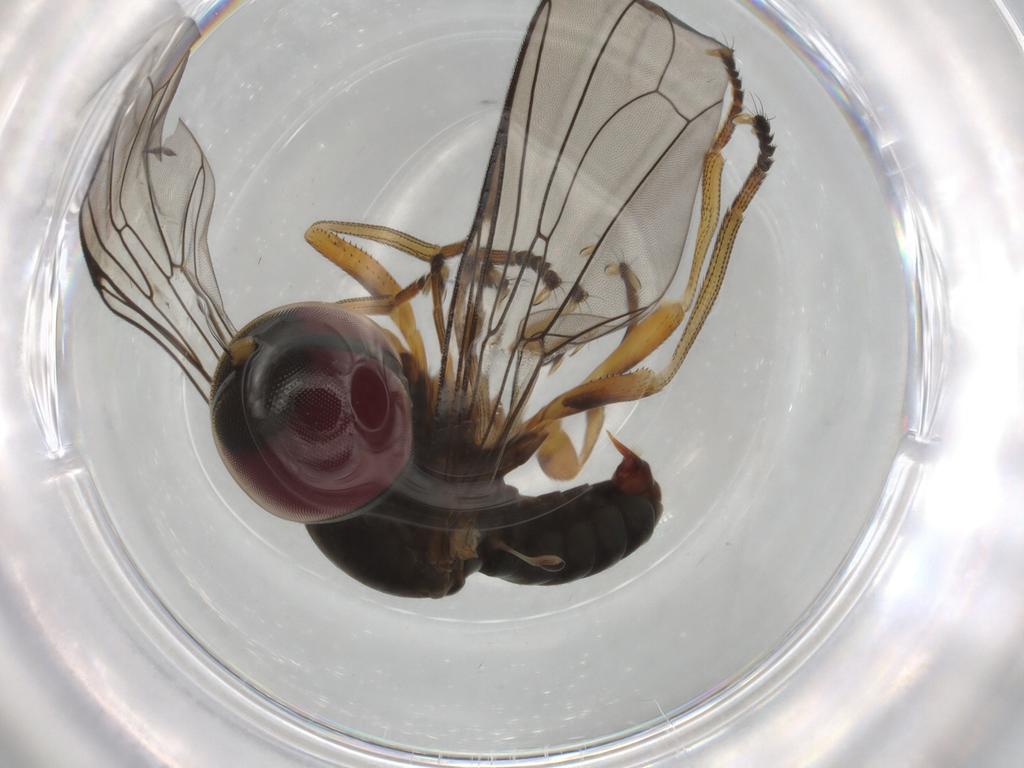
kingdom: Animalia
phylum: Arthropoda
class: Insecta
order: Diptera
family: Pipunculidae
